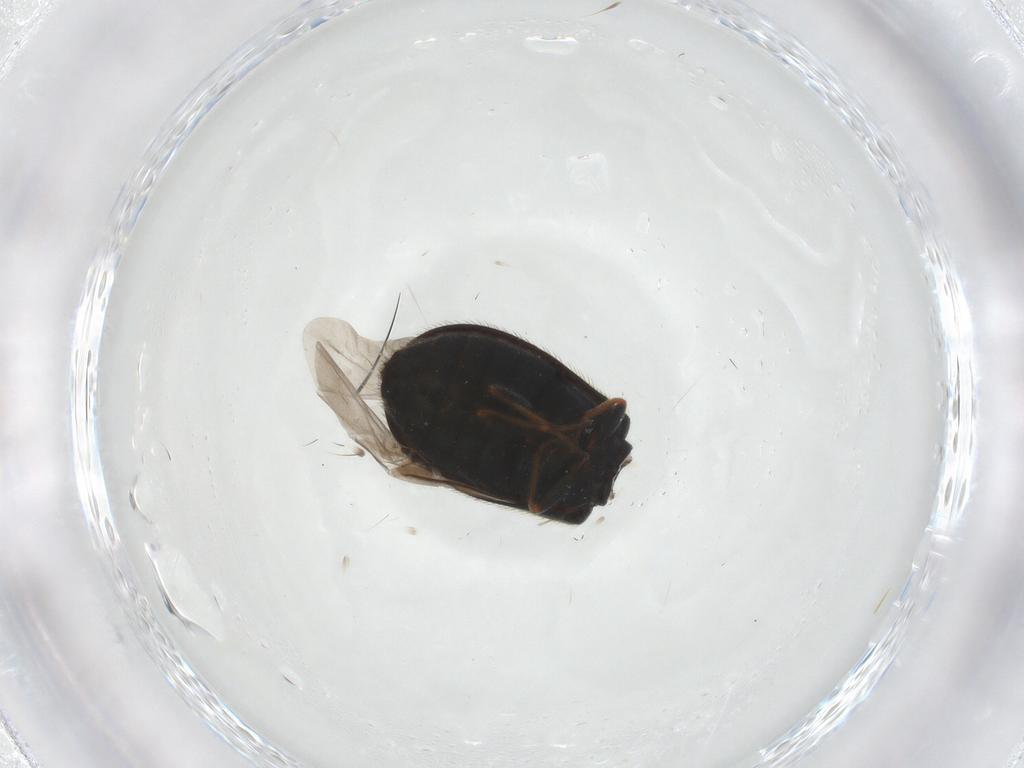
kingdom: Animalia
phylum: Arthropoda
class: Insecta
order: Coleoptera
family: Melyridae
